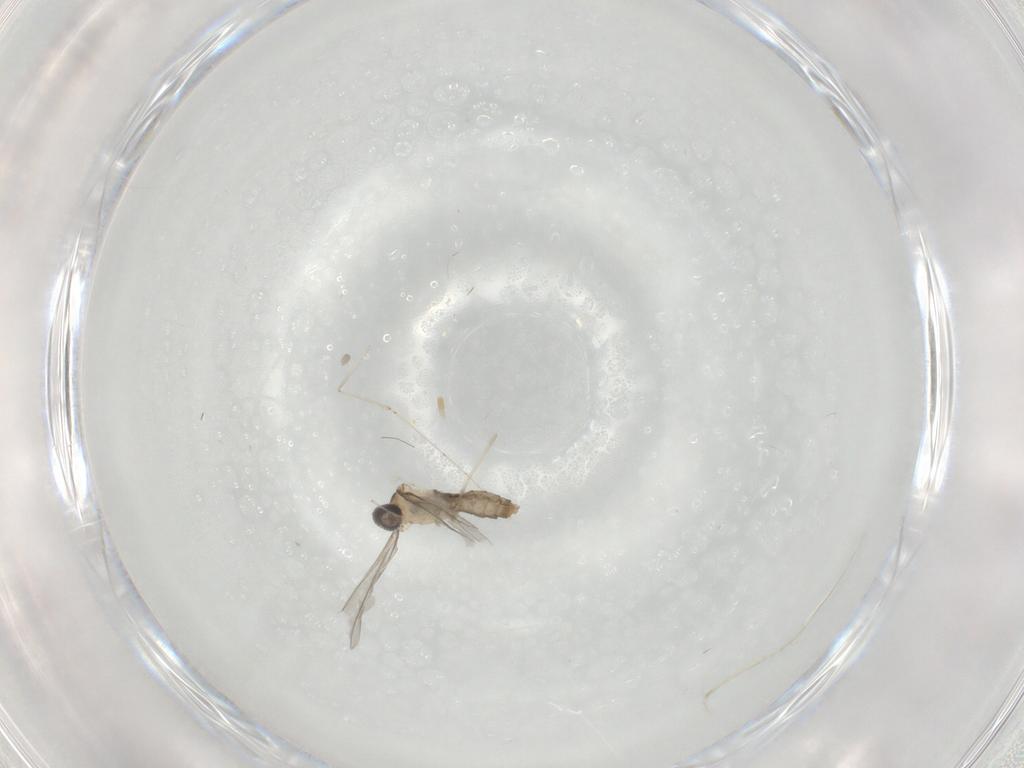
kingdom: Animalia
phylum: Arthropoda
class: Insecta
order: Diptera
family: Cecidomyiidae
